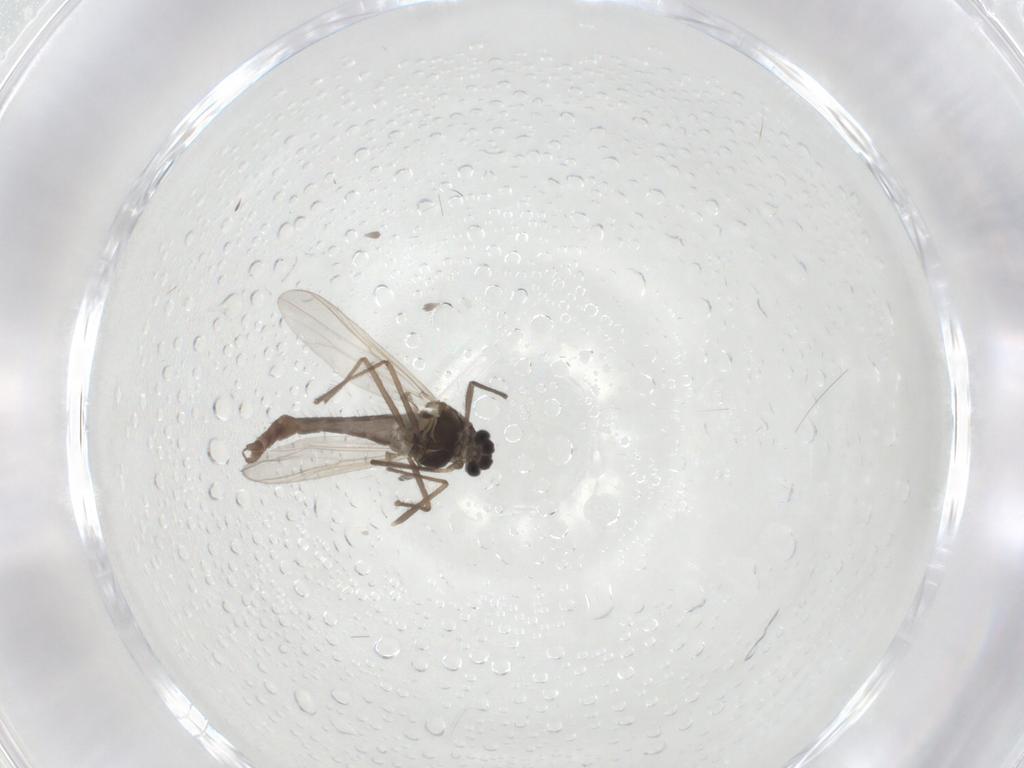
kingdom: Animalia
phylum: Arthropoda
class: Insecta
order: Diptera
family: Chironomidae
